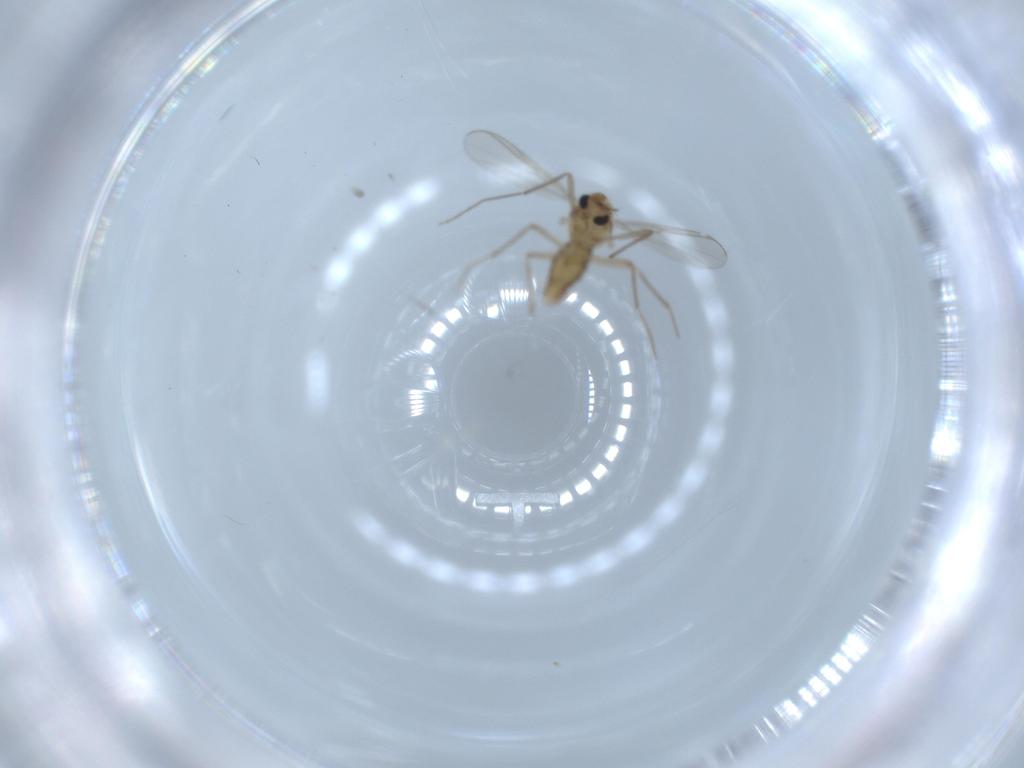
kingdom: Animalia
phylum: Arthropoda
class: Insecta
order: Diptera
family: Chironomidae
